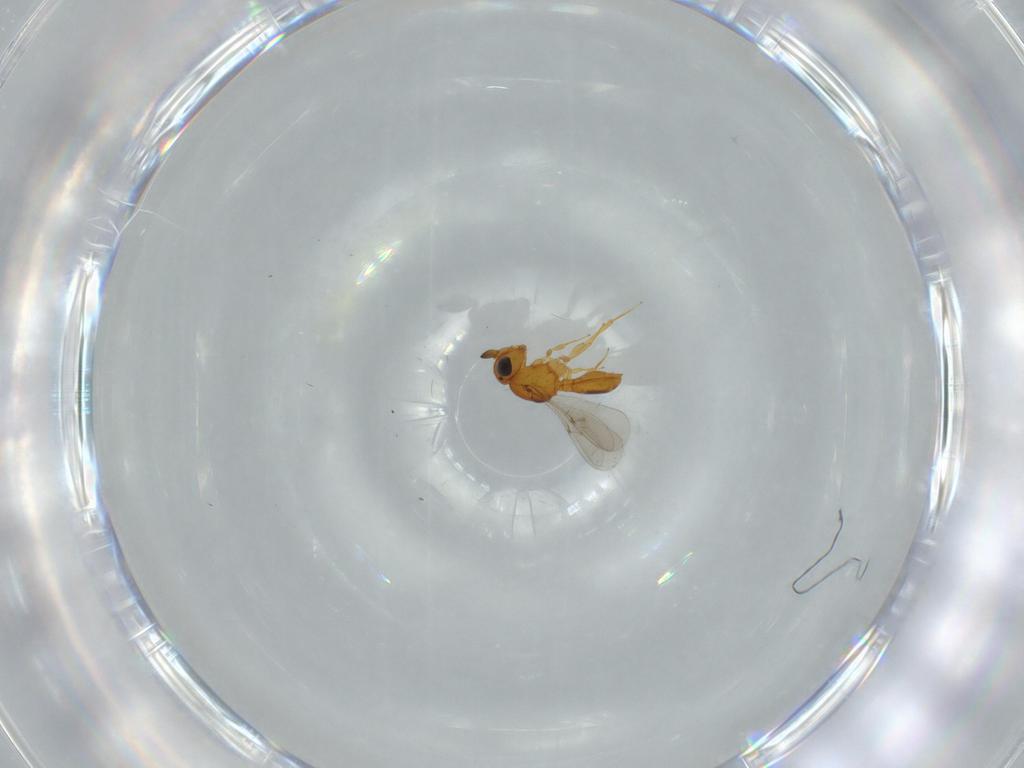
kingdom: Animalia
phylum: Arthropoda
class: Insecta
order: Hymenoptera
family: Scelionidae
